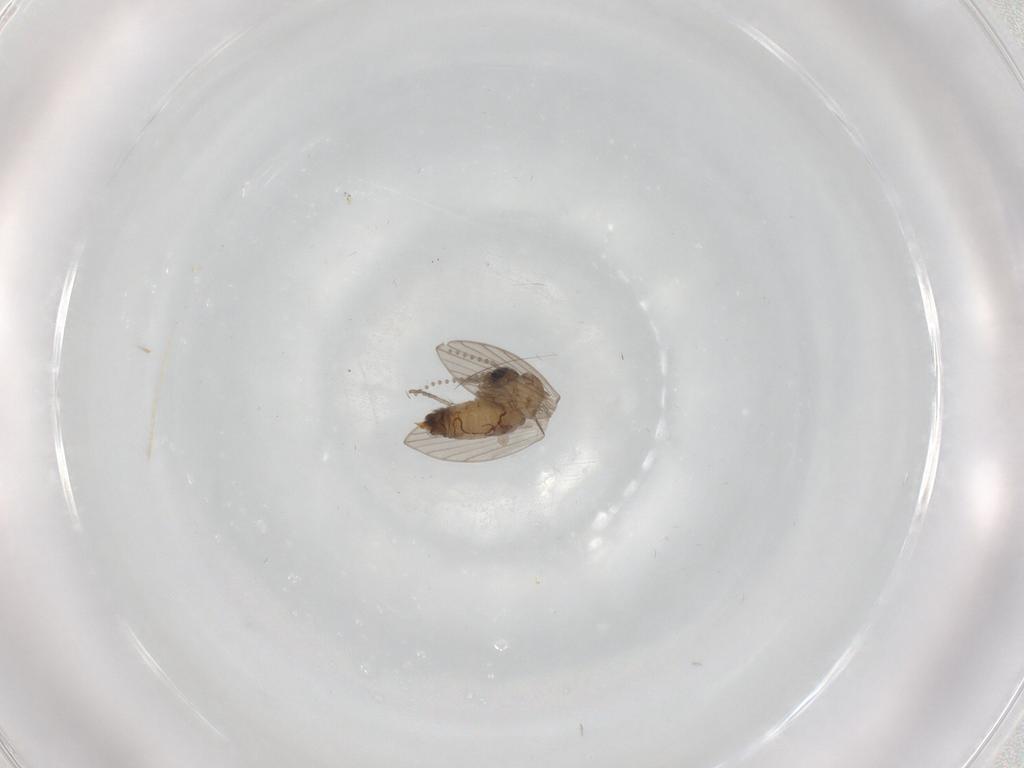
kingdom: Animalia
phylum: Arthropoda
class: Insecta
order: Diptera
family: Psychodidae
